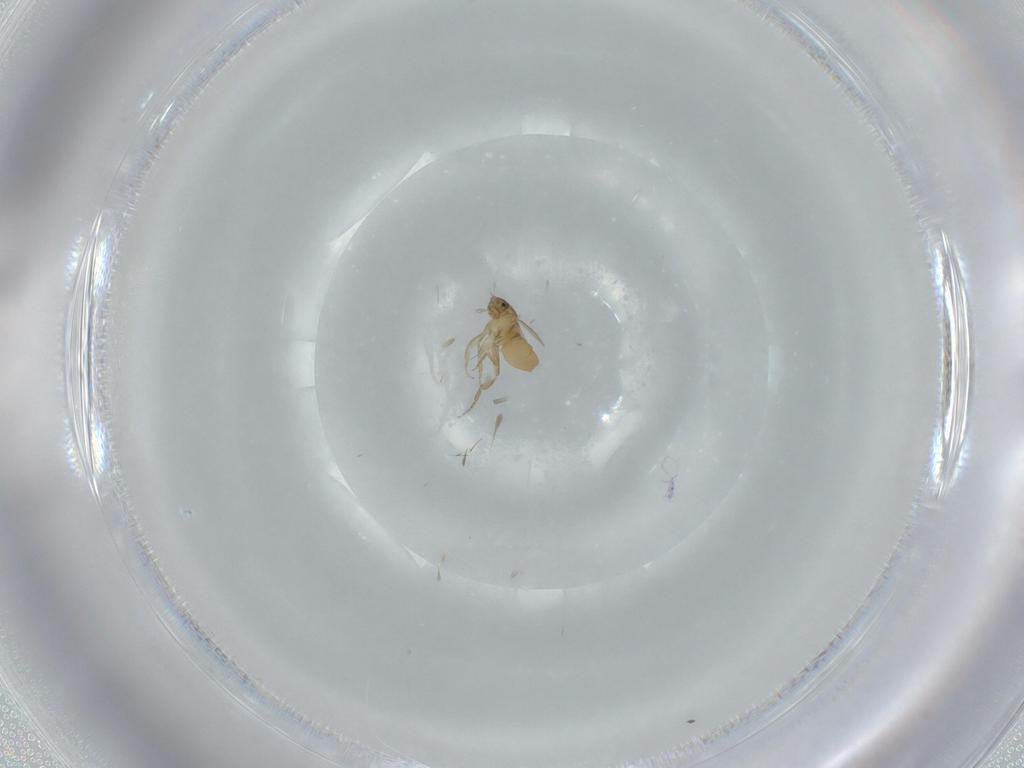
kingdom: Animalia
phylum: Arthropoda
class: Insecta
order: Diptera
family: Phoridae
